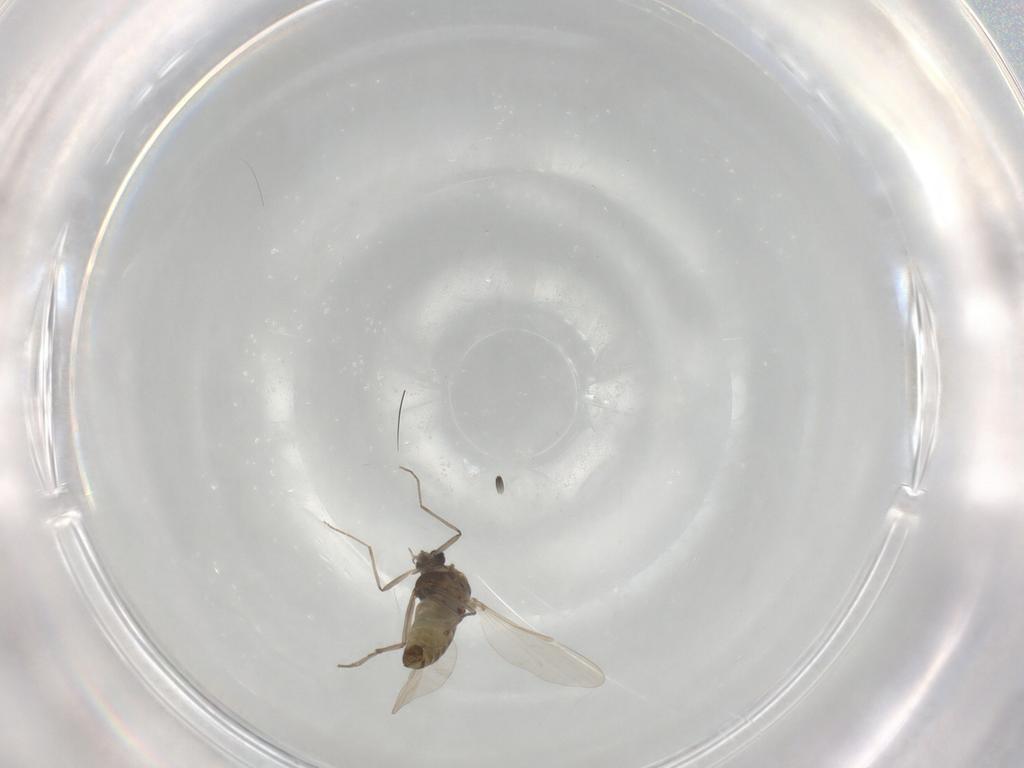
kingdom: Animalia
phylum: Arthropoda
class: Insecta
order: Diptera
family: Chironomidae
